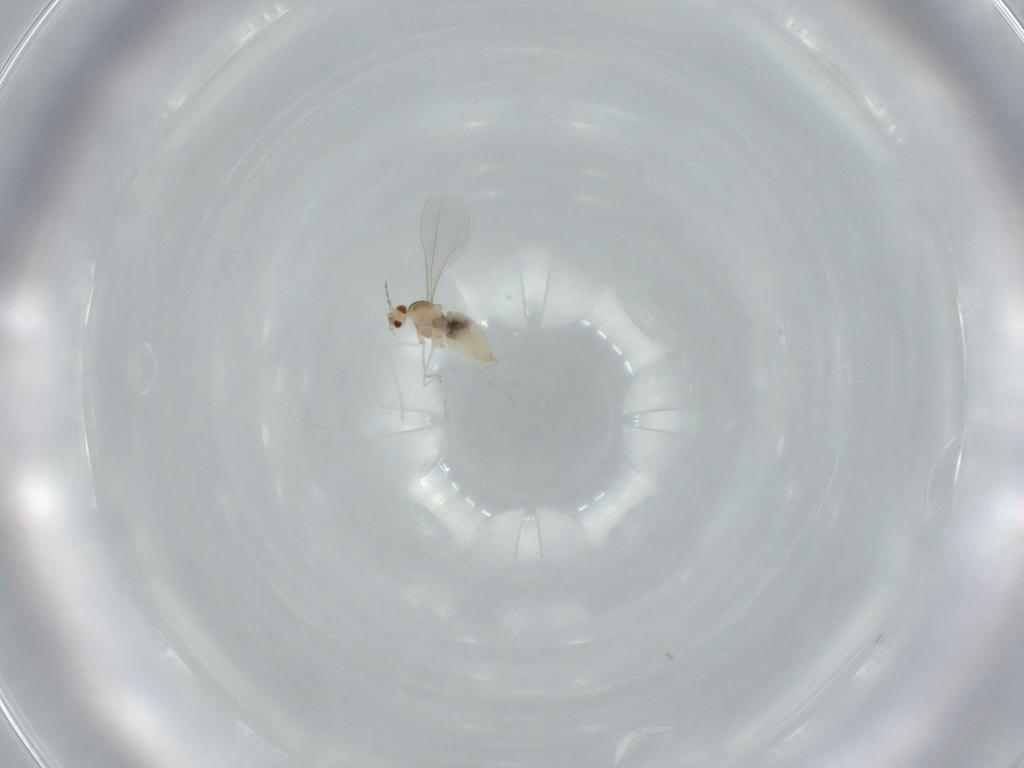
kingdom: Animalia
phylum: Arthropoda
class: Insecta
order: Diptera
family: Cecidomyiidae
